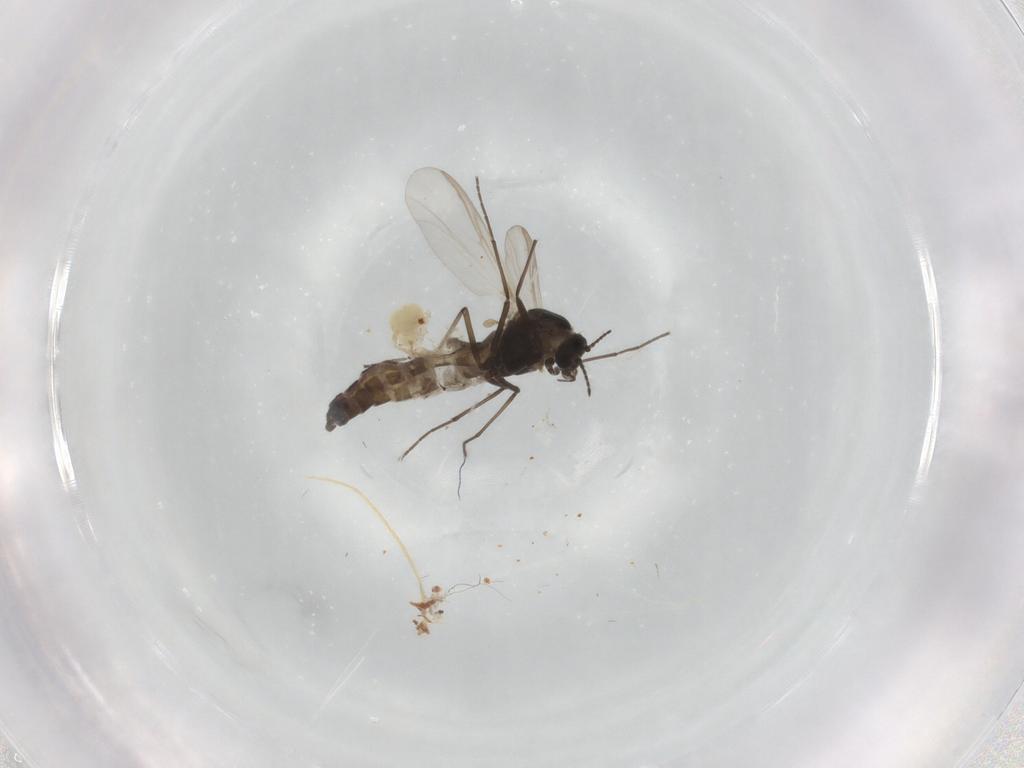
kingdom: Animalia
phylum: Arthropoda
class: Insecta
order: Diptera
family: Chironomidae
